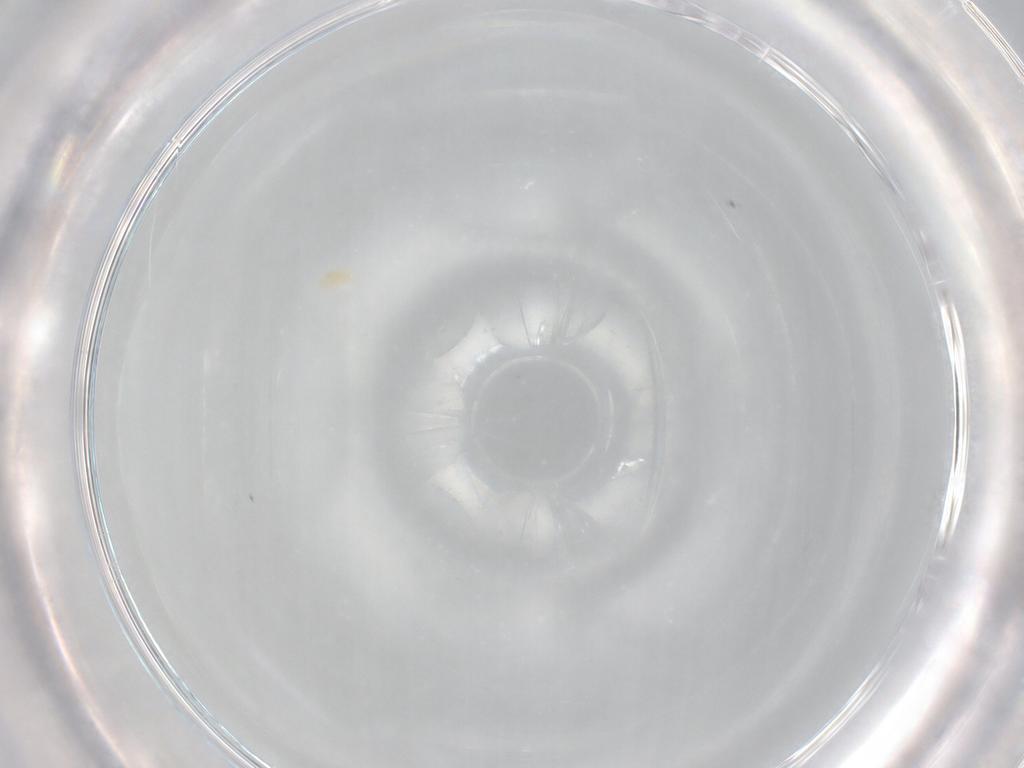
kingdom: Animalia
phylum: Arthropoda
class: Arachnida
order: Trombidiformes
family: Eupodidae
